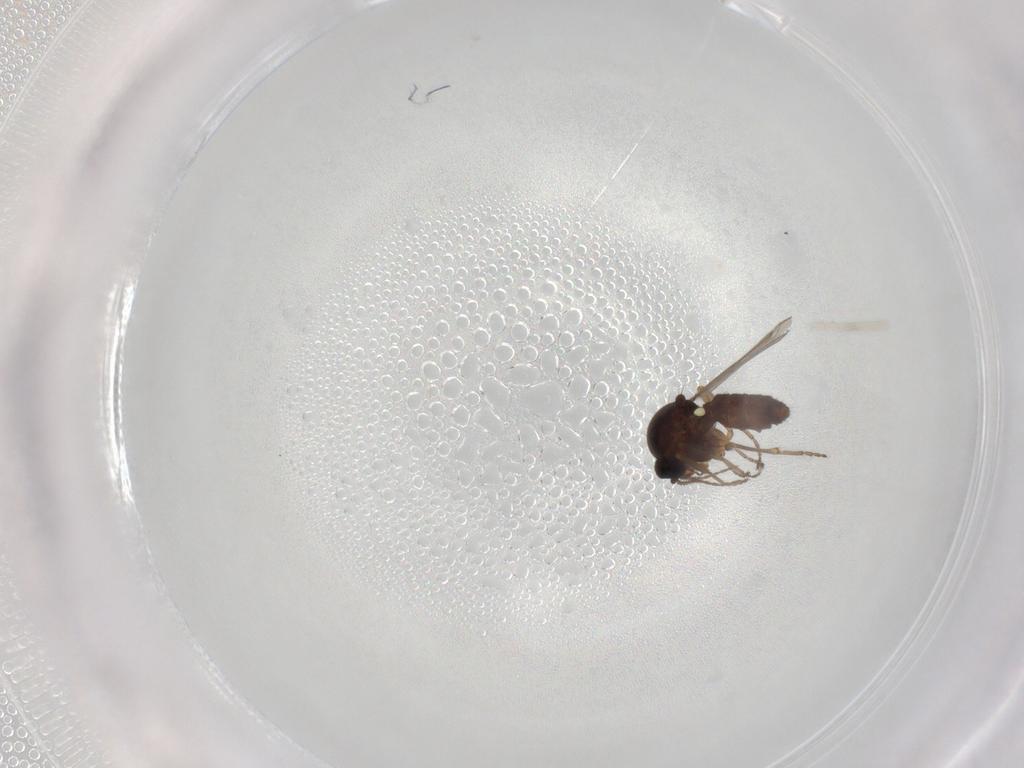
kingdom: Animalia
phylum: Arthropoda
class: Insecta
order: Diptera
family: Ceratopogonidae
